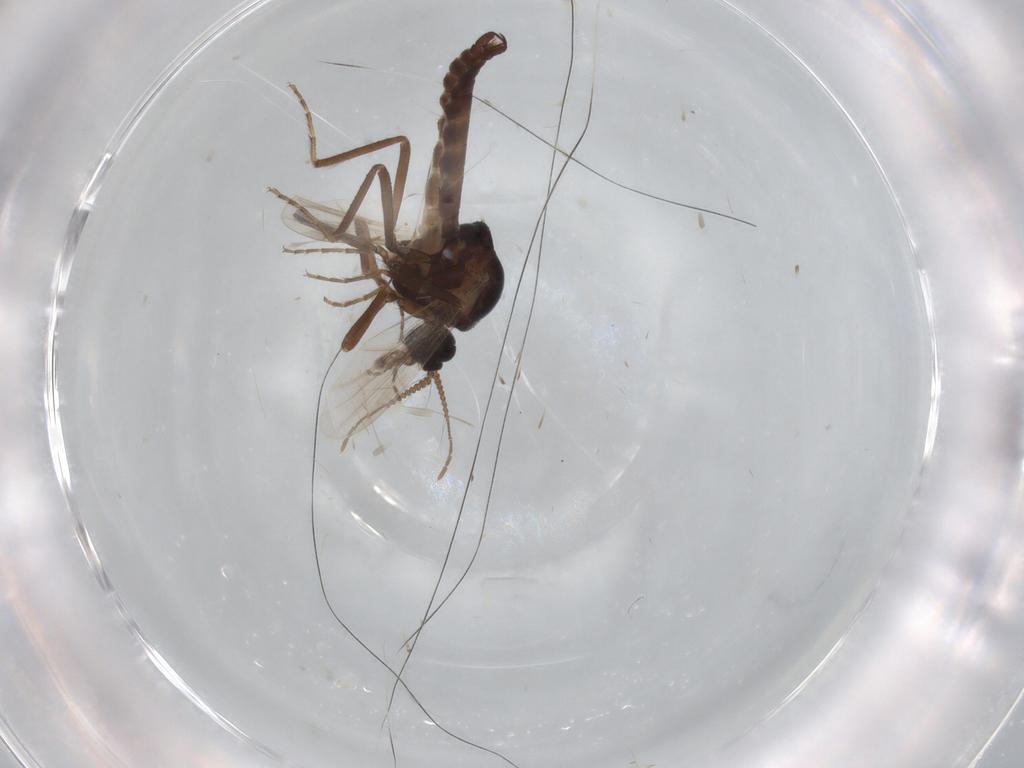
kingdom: Animalia
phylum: Arthropoda
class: Insecta
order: Diptera
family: Ceratopogonidae
